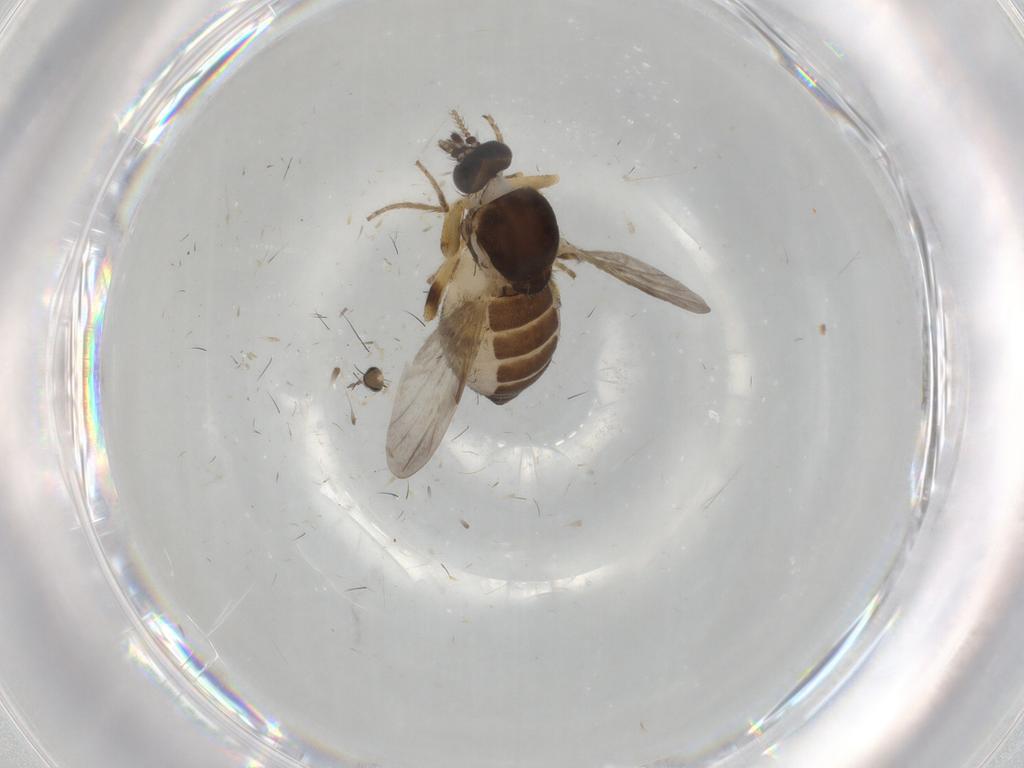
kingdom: Animalia
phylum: Arthropoda
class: Insecta
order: Diptera
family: Ceratopogonidae
